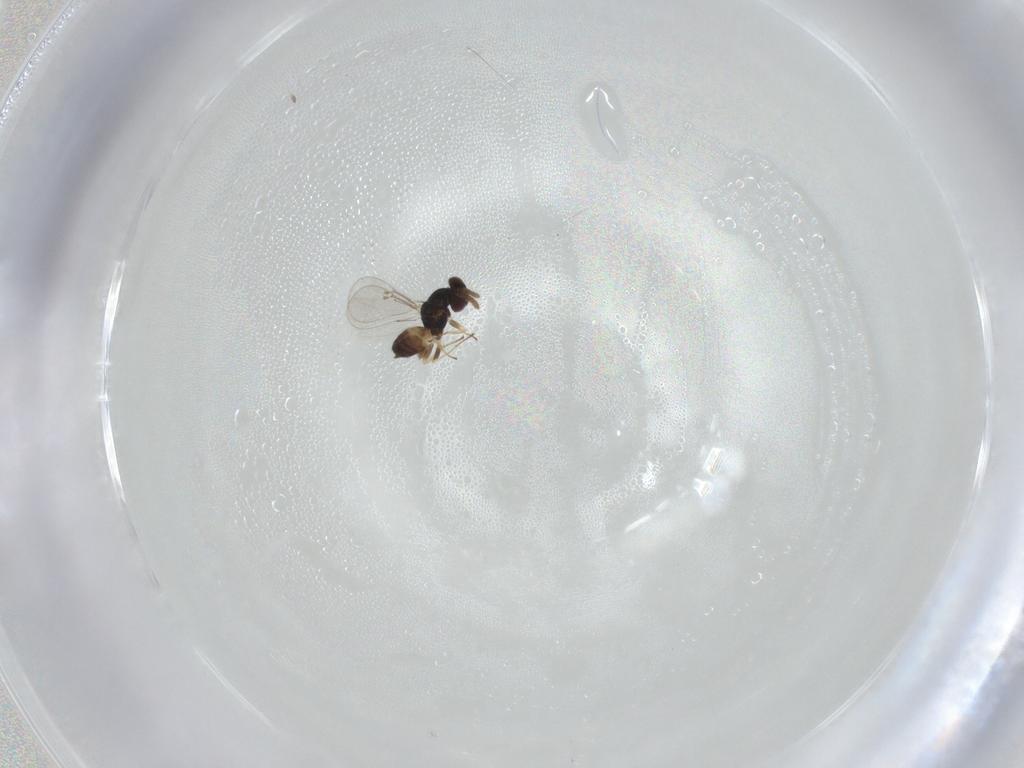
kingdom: Animalia
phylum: Arthropoda
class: Insecta
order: Hymenoptera
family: Eulophidae
